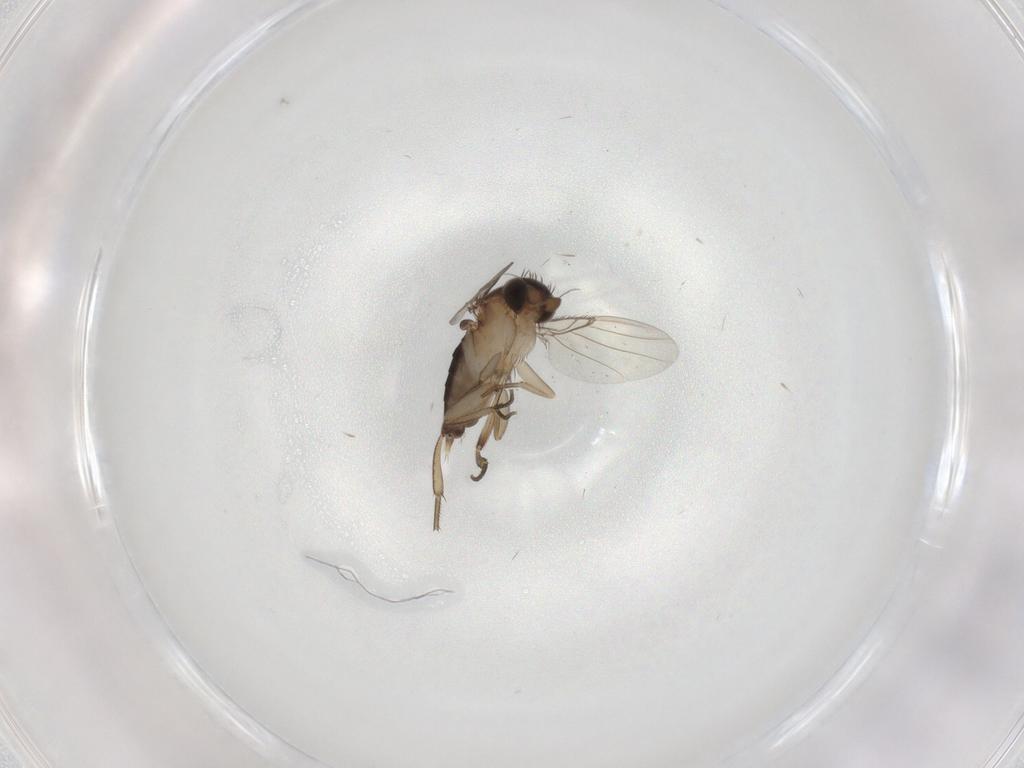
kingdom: Animalia
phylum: Arthropoda
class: Insecta
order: Diptera
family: Phoridae
